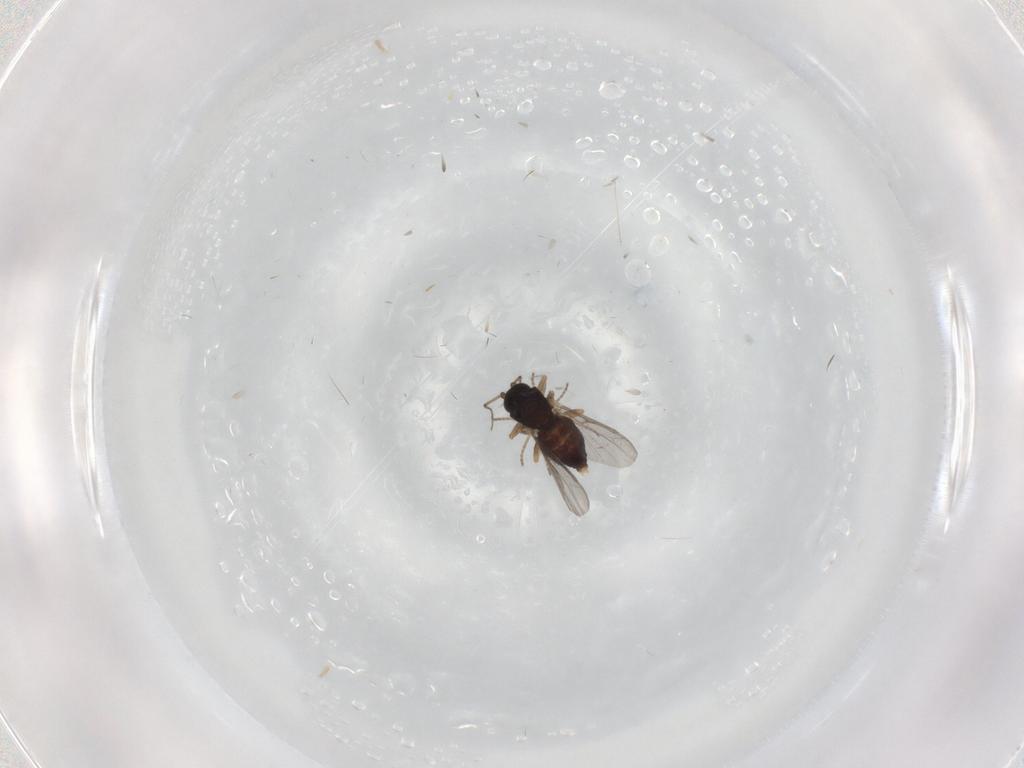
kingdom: Animalia
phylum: Arthropoda
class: Insecta
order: Diptera
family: Ceratopogonidae
